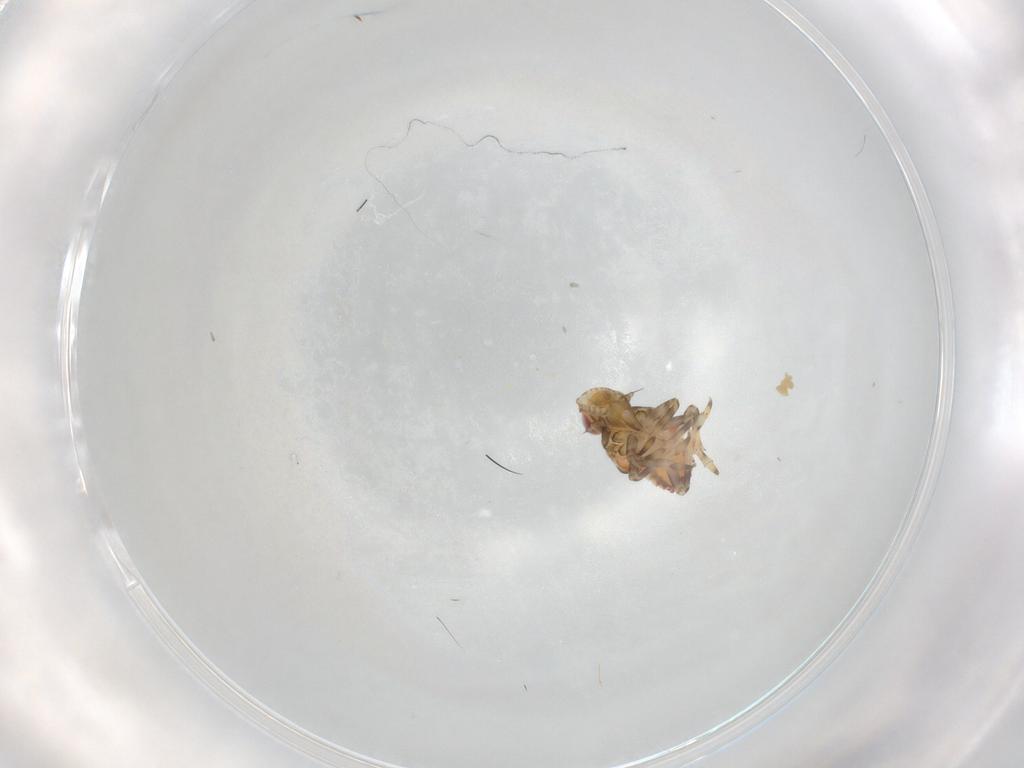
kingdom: Animalia
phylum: Arthropoda
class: Insecta
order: Hemiptera
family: Tropiduchidae
